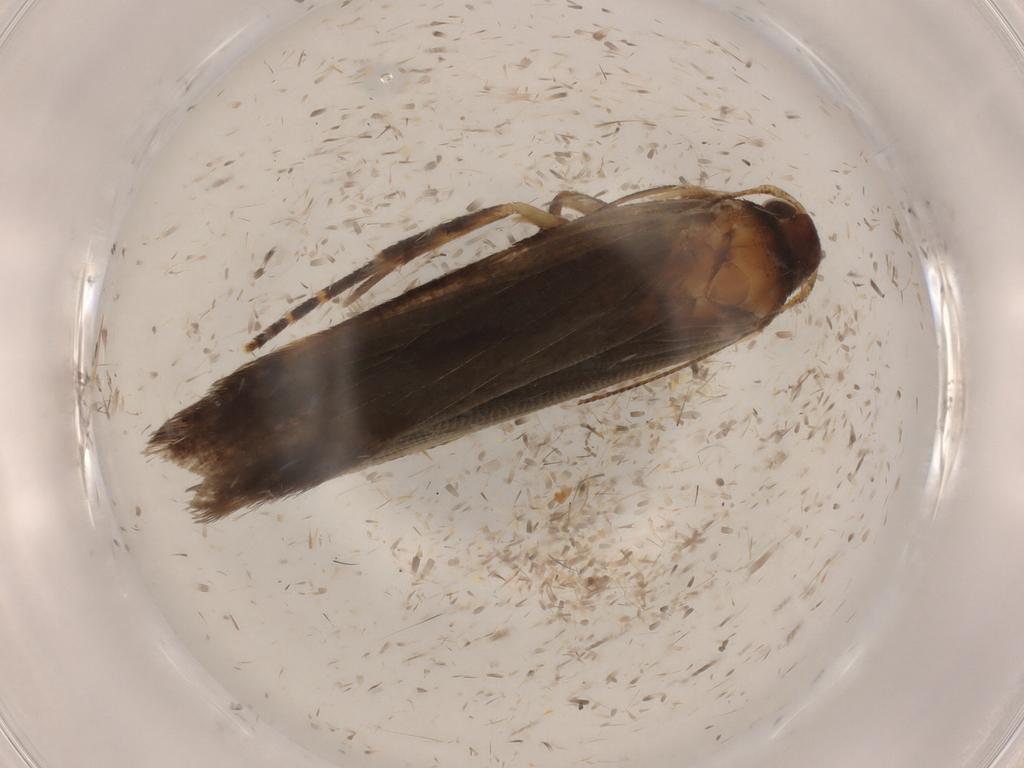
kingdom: Animalia
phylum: Arthropoda
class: Insecta
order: Lepidoptera
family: Gelechiidae
